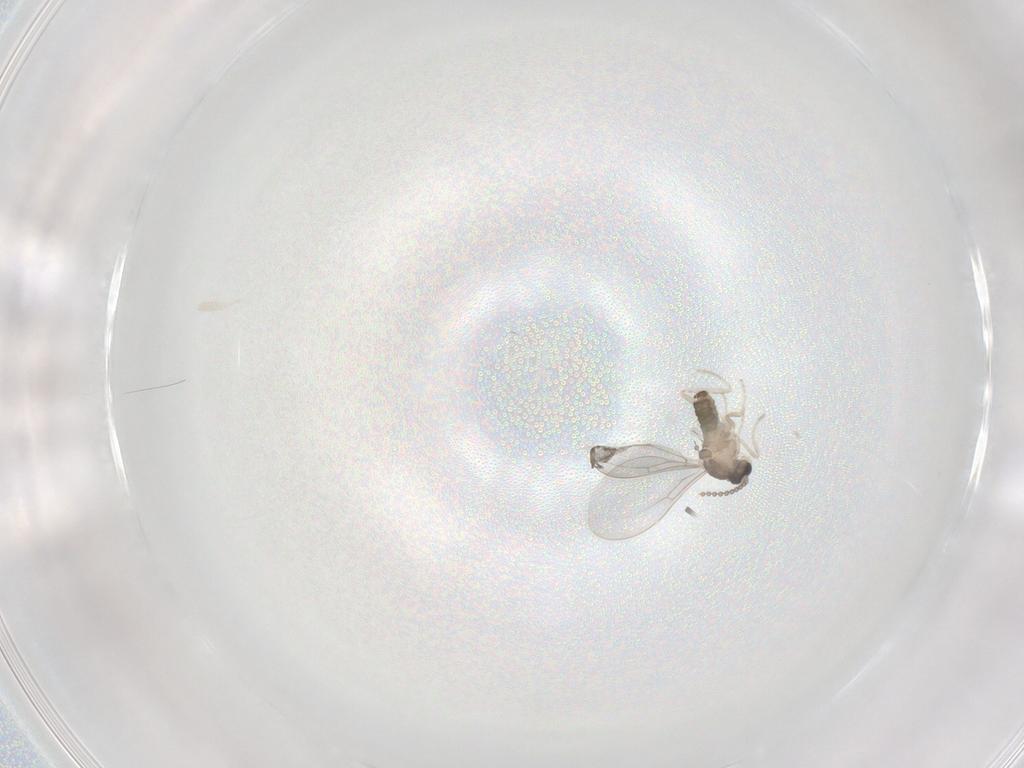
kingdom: Animalia
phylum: Arthropoda
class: Insecta
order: Diptera
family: Cecidomyiidae
